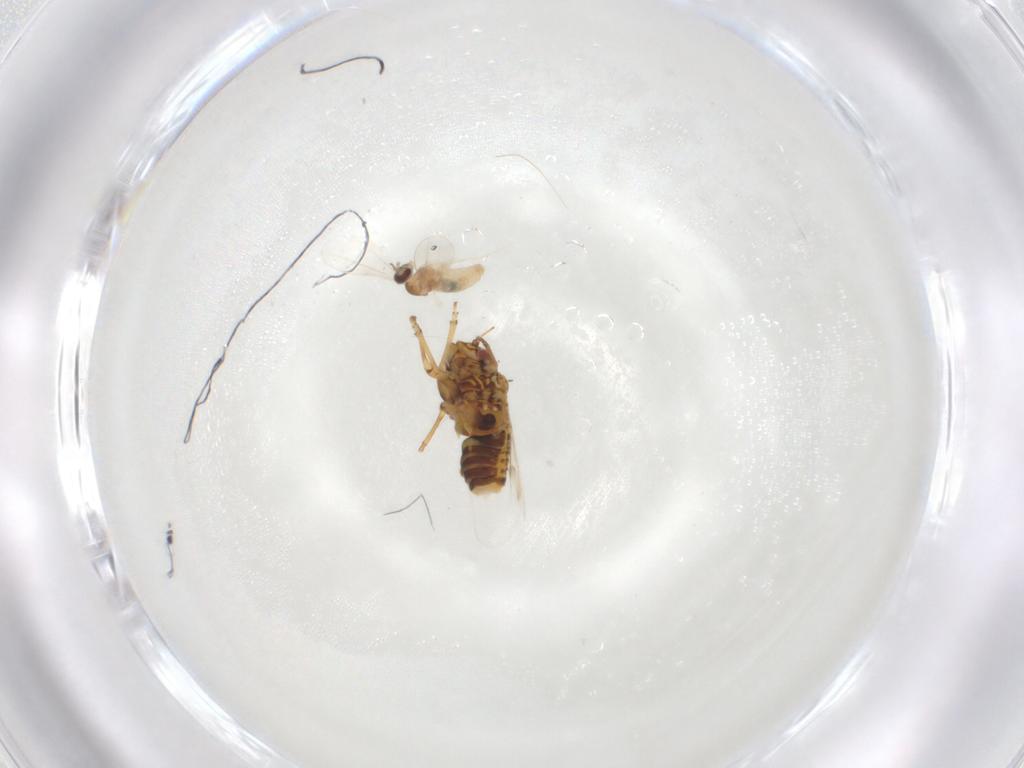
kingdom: Animalia
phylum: Arthropoda
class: Insecta
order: Diptera
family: Cecidomyiidae
